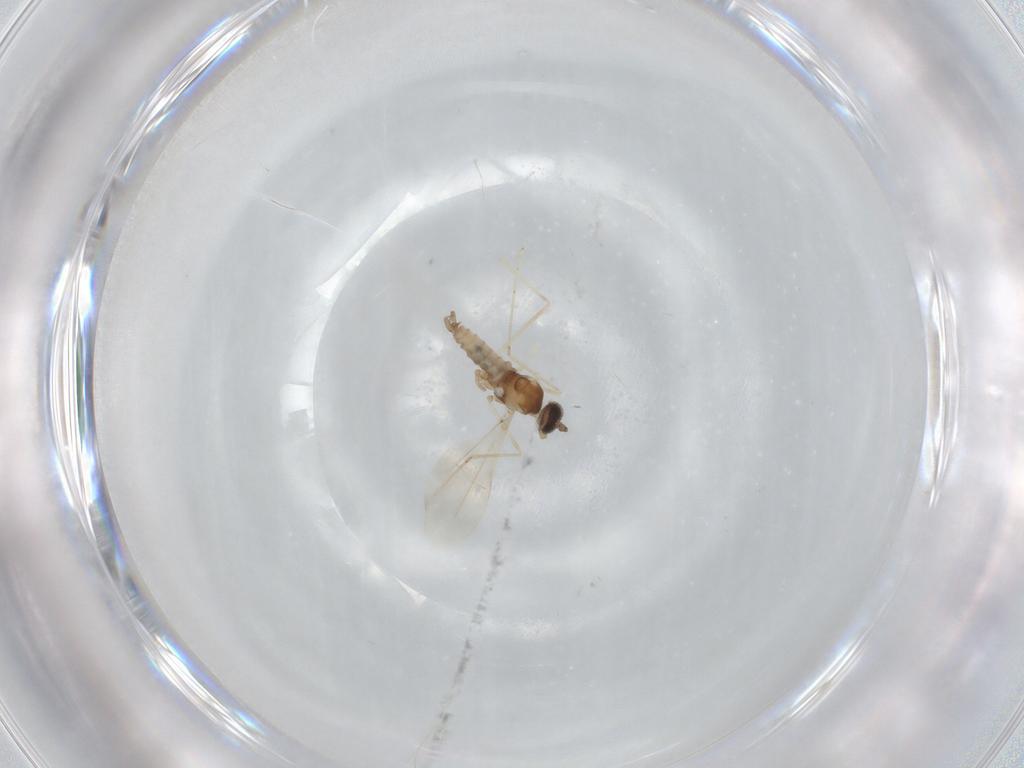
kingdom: Animalia
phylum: Arthropoda
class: Insecta
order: Diptera
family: Cecidomyiidae
